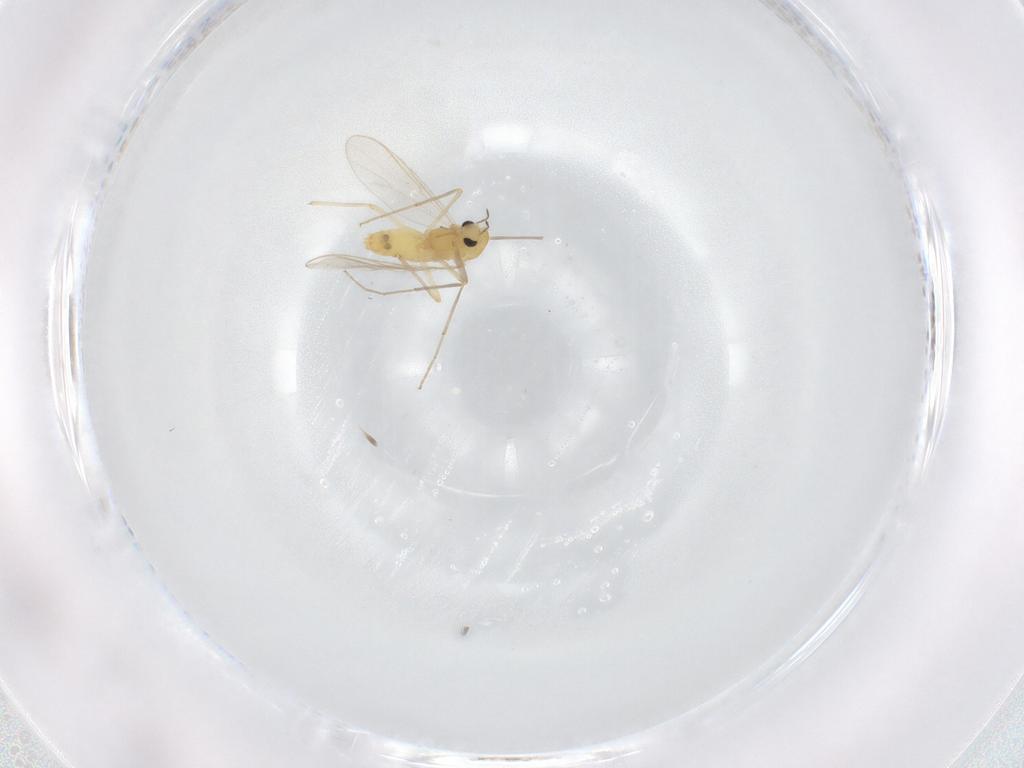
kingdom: Animalia
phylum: Arthropoda
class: Insecta
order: Diptera
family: Chironomidae
